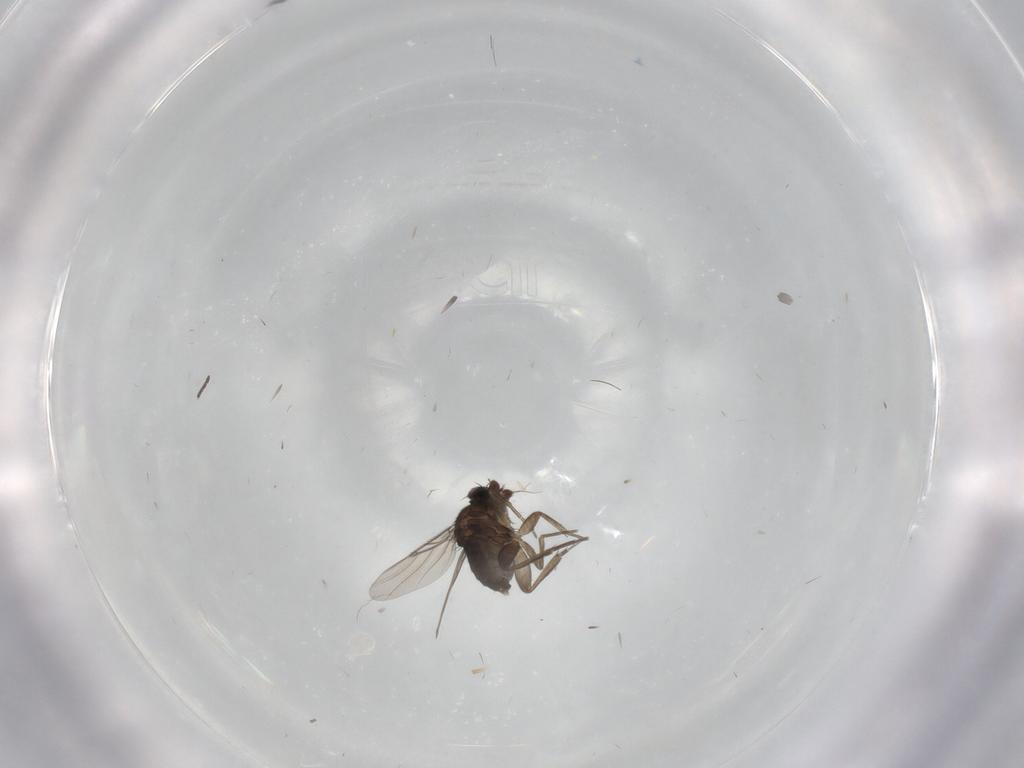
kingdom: Animalia
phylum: Arthropoda
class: Insecta
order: Diptera
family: Phoridae
